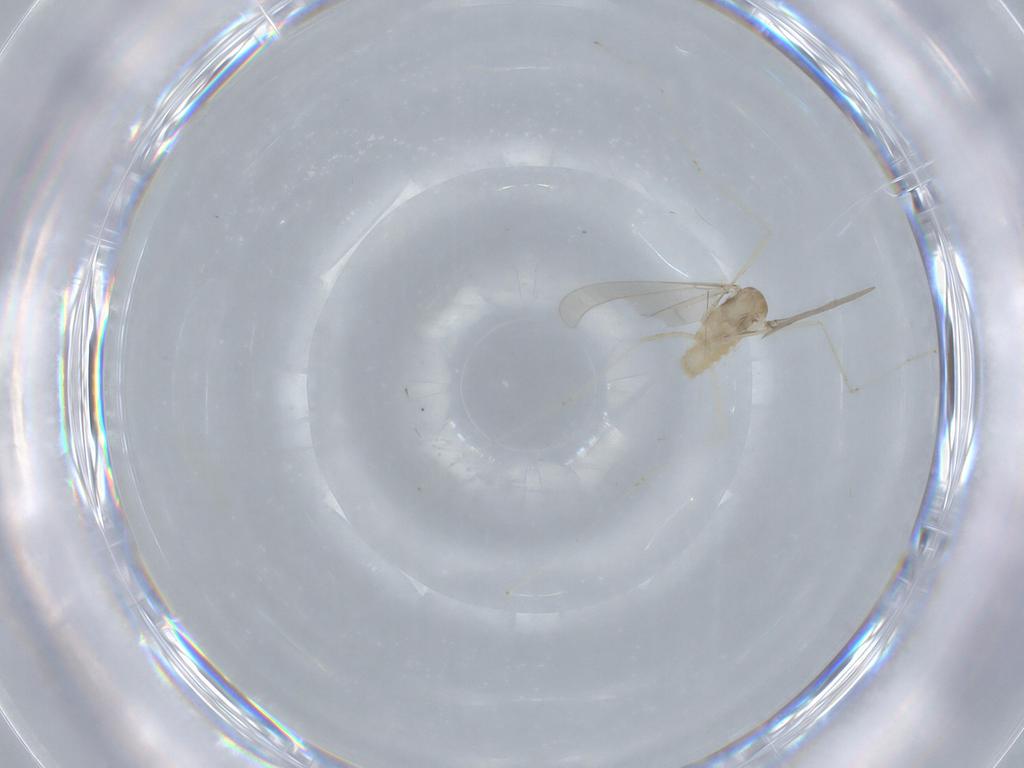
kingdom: Animalia
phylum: Arthropoda
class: Insecta
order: Diptera
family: Cecidomyiidae
